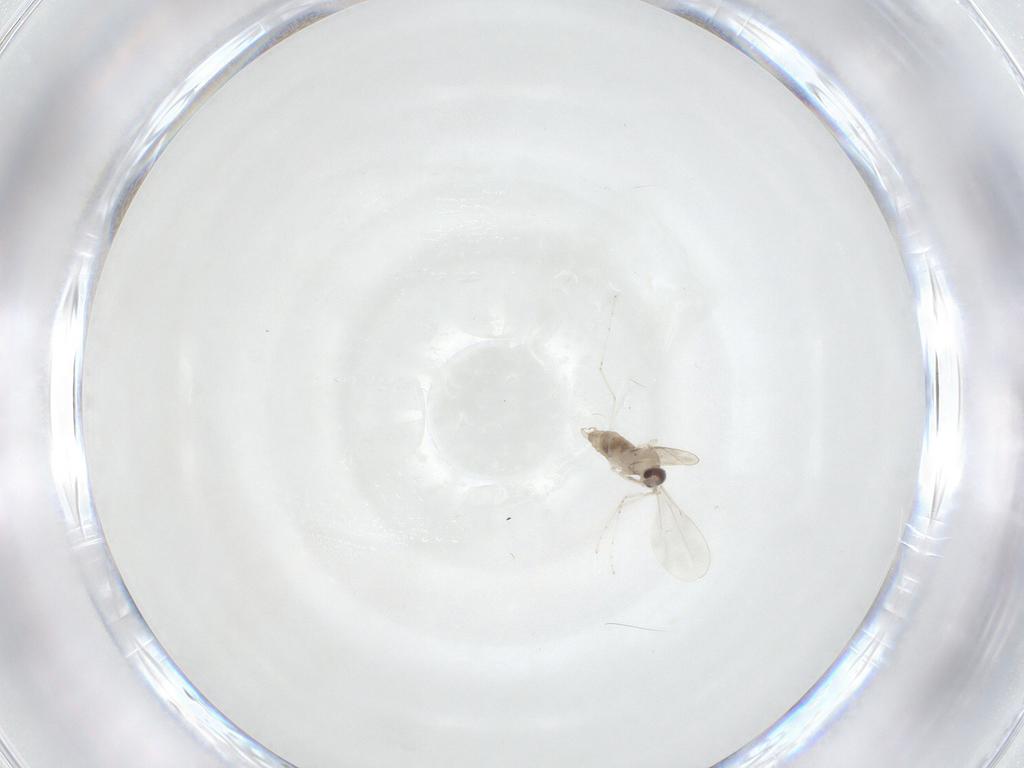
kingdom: Animalia
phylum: Arthropoda
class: Insecta
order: Diptera
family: Cecidomyiidae
